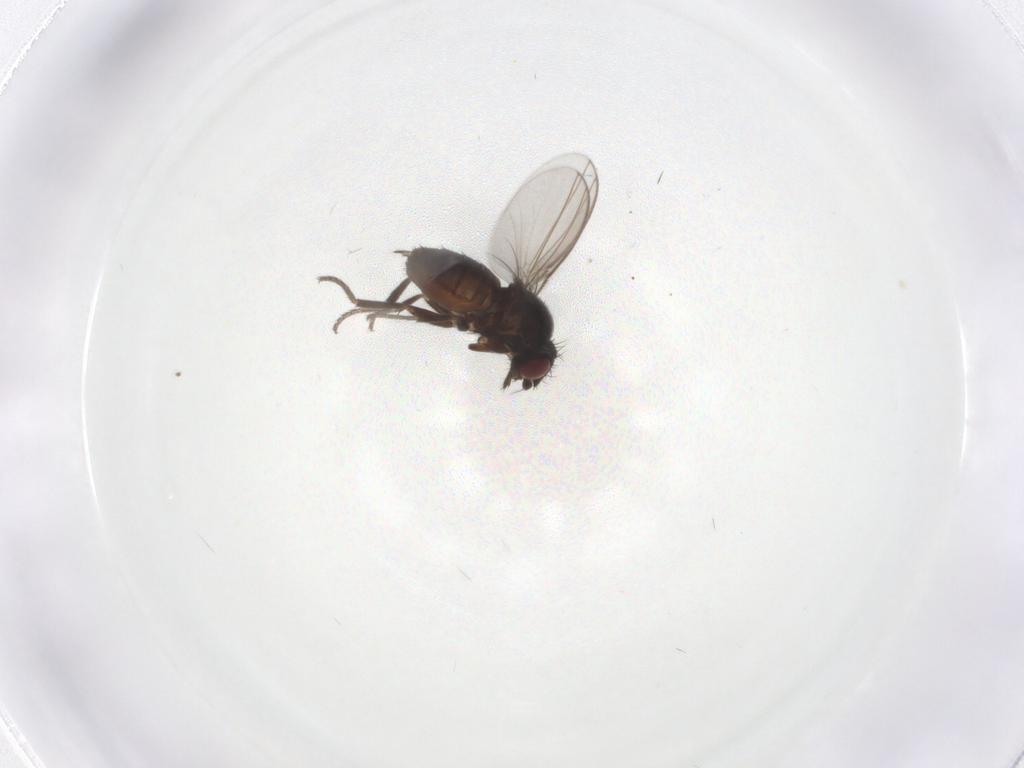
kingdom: Animalia
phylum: Arthropoda
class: Insecta
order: Diptera
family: Milichiidae
